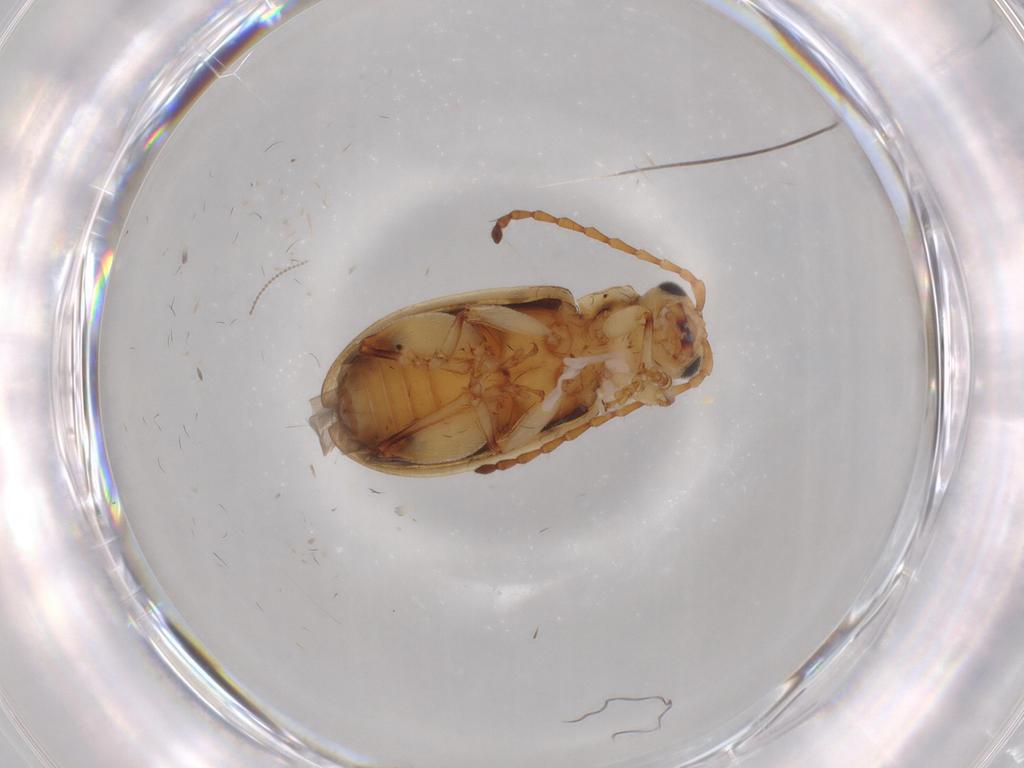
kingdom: Animalia
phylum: Arthropoda
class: Insecta
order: Coleoptera
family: Chrysomelidae
